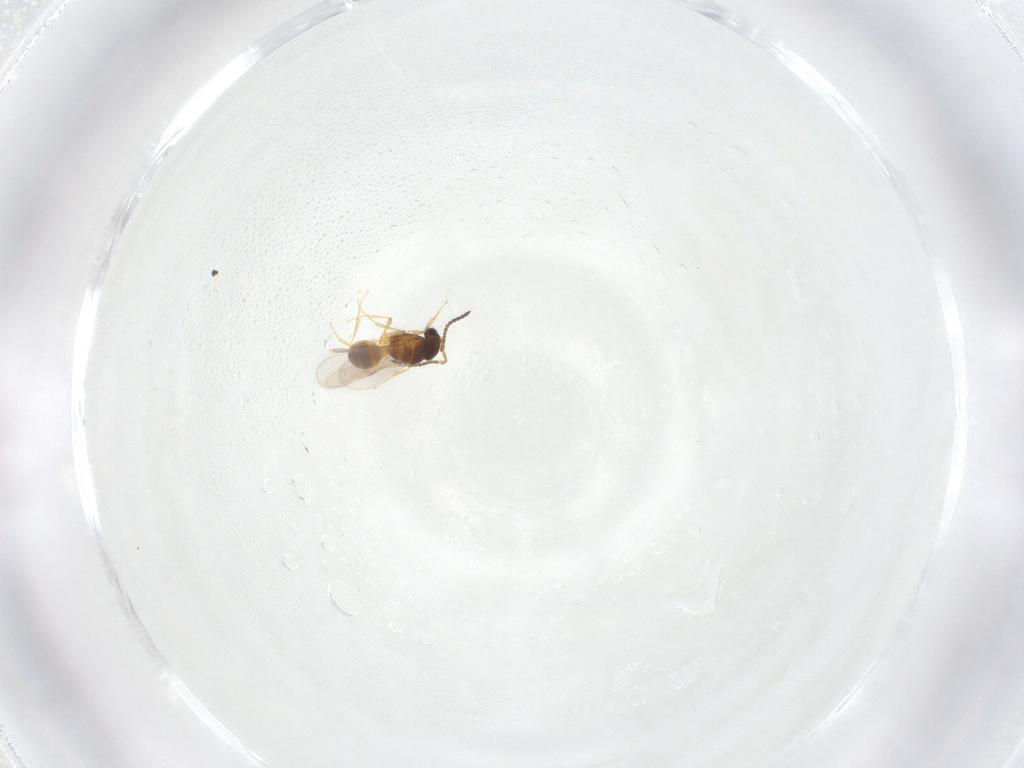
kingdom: Animalia
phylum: Arthropoda
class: Insecta
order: Hymenoptera
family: Scelionidae
